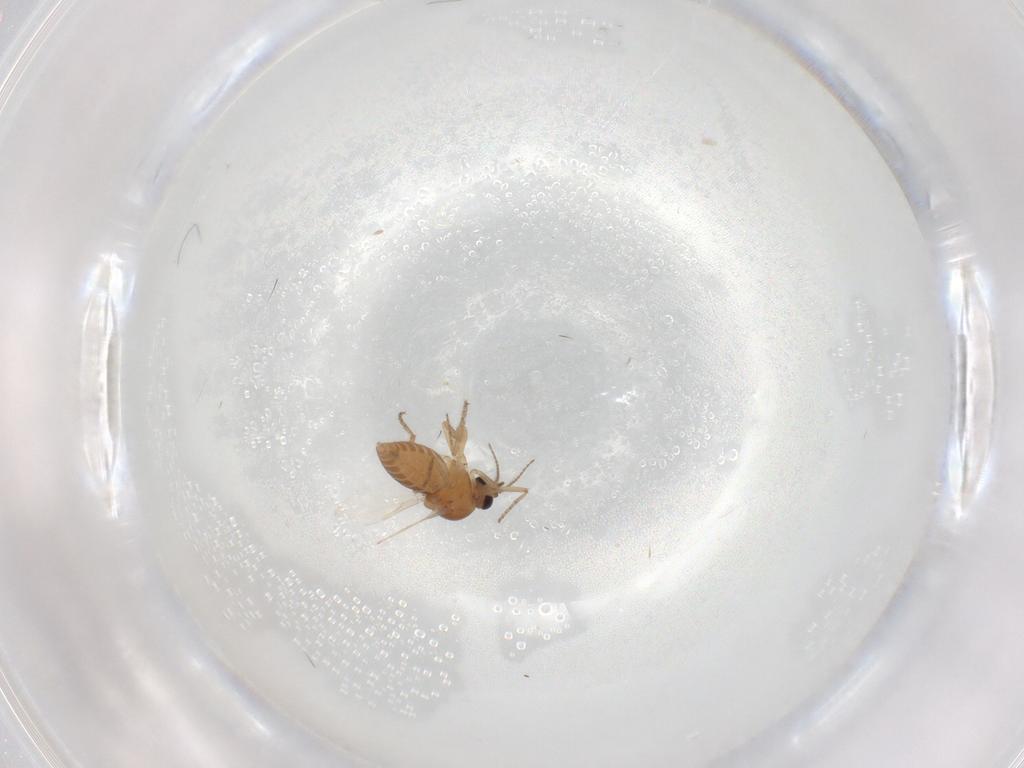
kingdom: Animalia
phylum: Arthropoda
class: Insecta
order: Diptera
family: Ceratopogonidae
